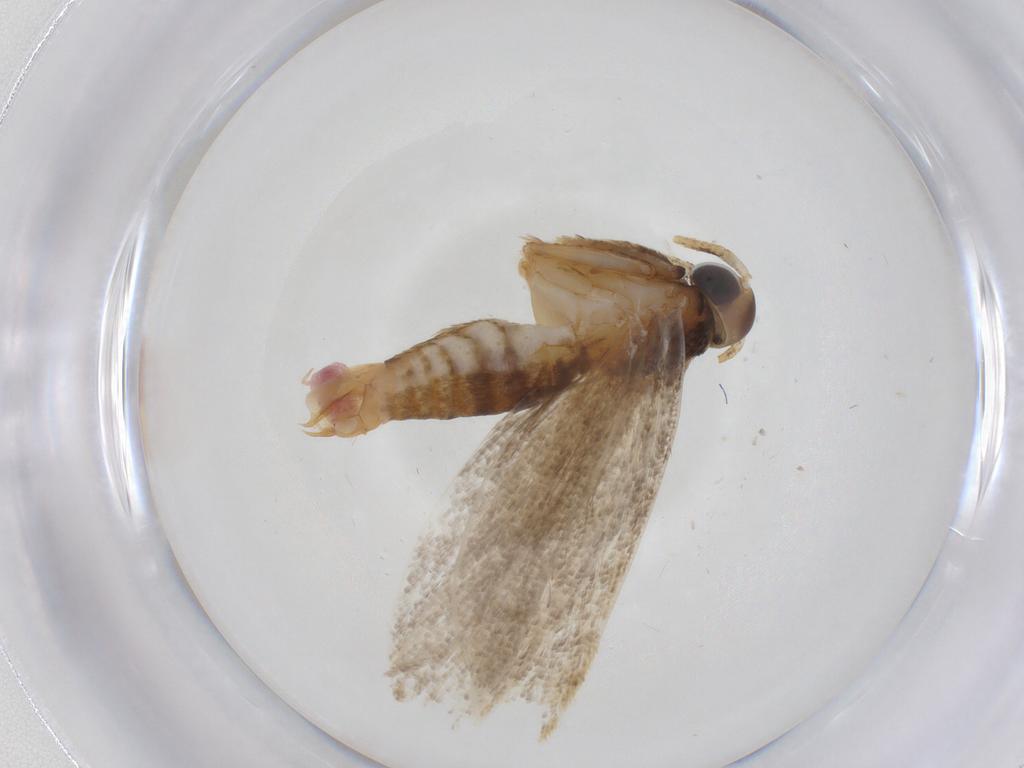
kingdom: Animalia
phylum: Arthropoda
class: Insecta
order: Lepidoptera
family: Oecophoridae
